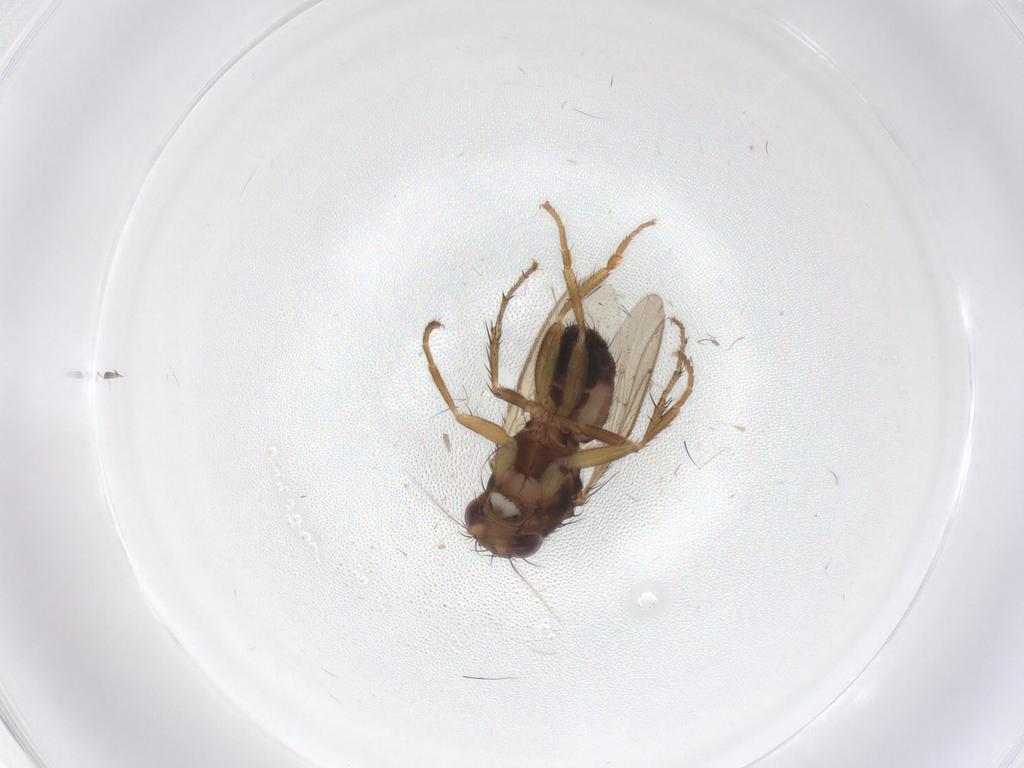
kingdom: Animalia
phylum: Arthropoda
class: Insecta
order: Diptera
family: Sphaeroceridae
